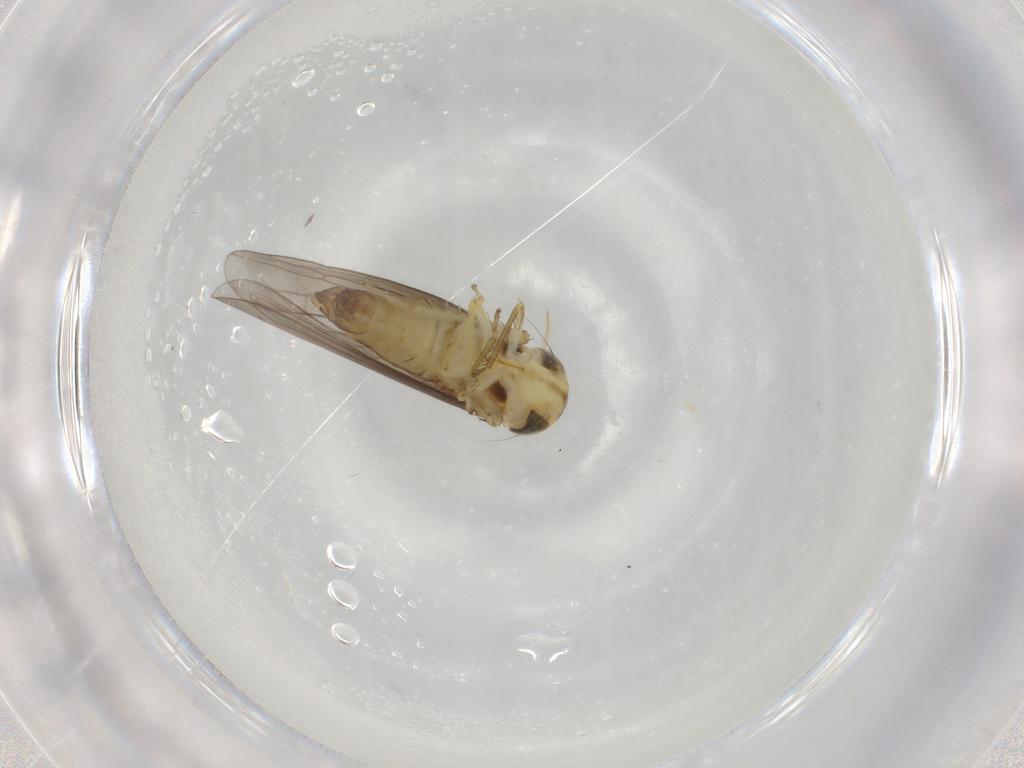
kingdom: Animalia
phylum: Arthropoda
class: Insecta
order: Hemiptera
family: Cicadellidae
